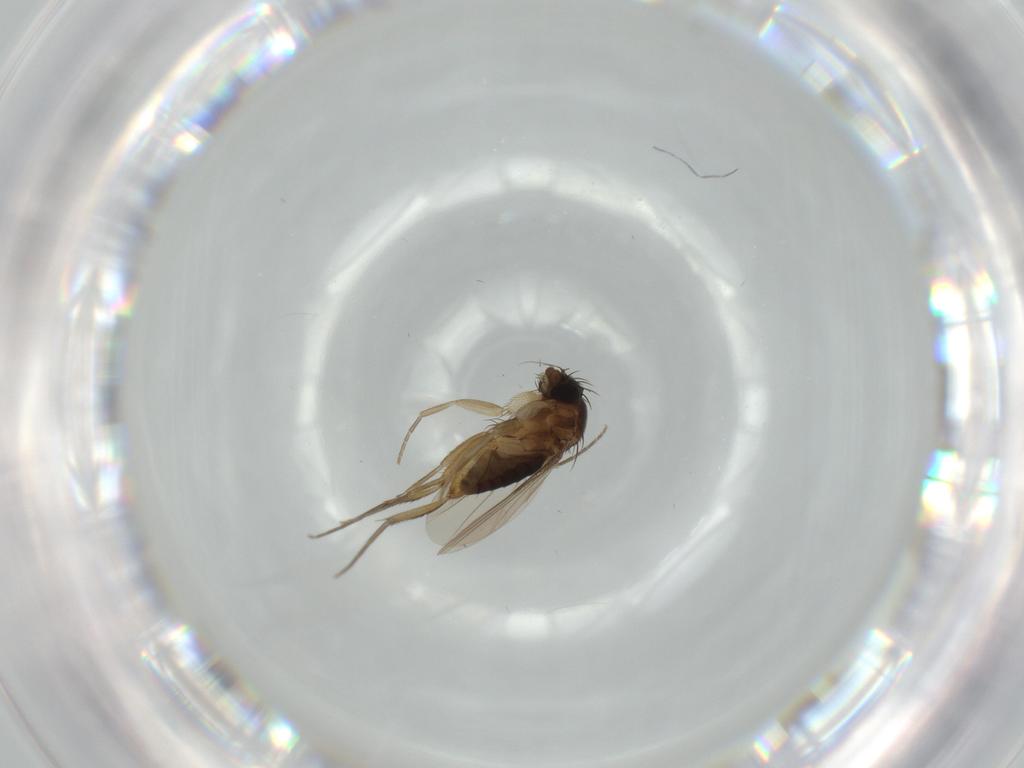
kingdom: Animalia
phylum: Arthropoda
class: Insecta
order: Diptera
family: Phoridae
